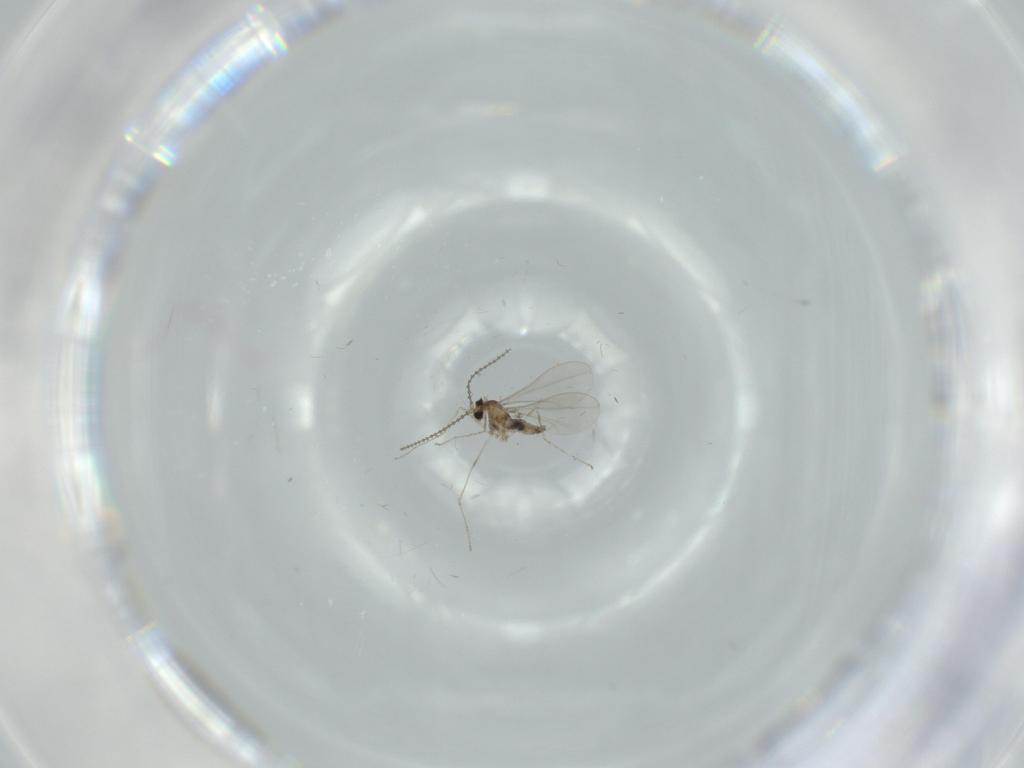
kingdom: Animalia
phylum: Arthropoda
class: Insecta
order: Diptera
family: Cecidomyiidae
